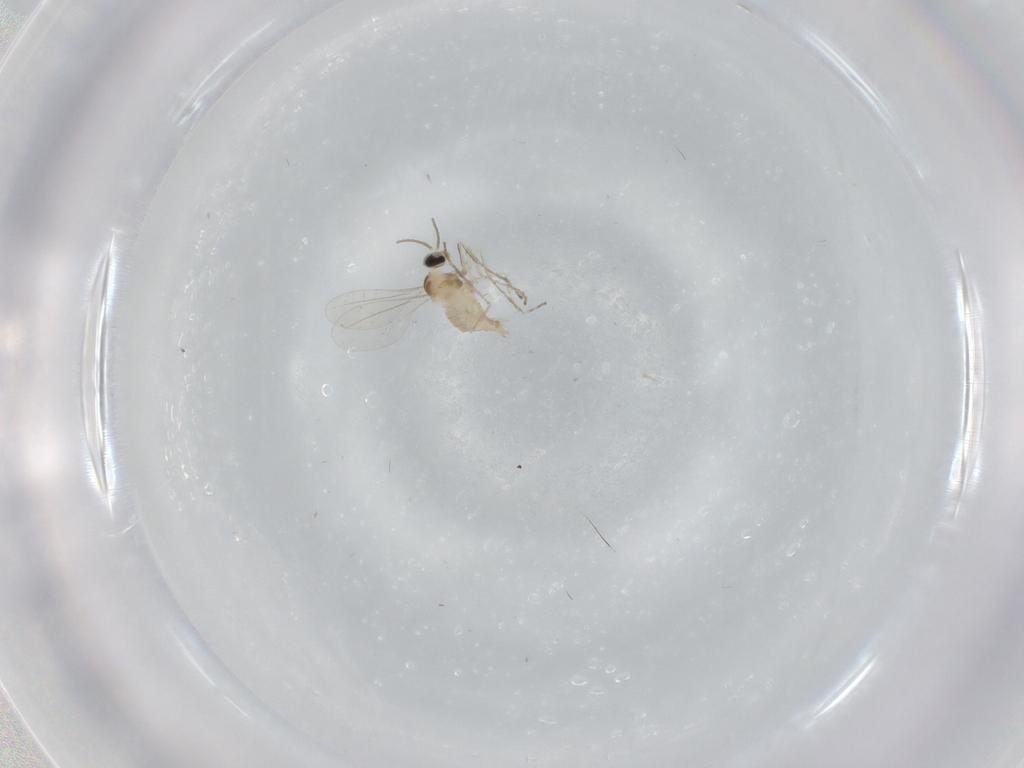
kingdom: Animalia
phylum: Arthropoda
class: Insecta
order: Diptera
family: Cecidomyiidae
